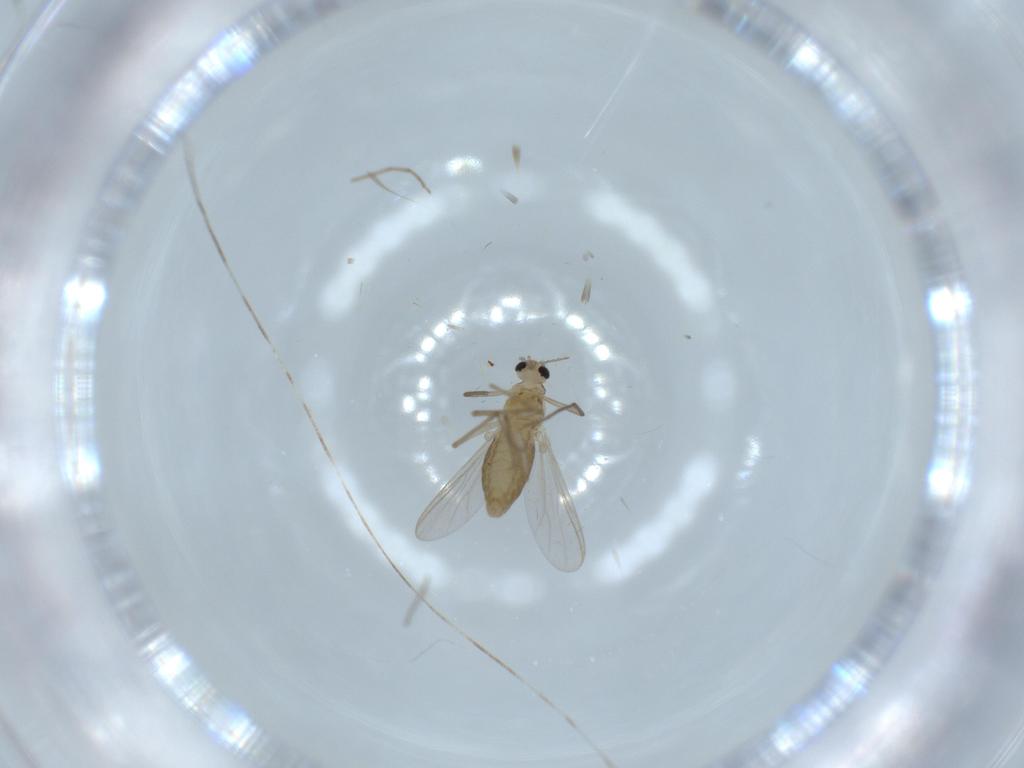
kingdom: Animalia
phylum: Arthropoda
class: Insecta
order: Diptera
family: Chironomidae
